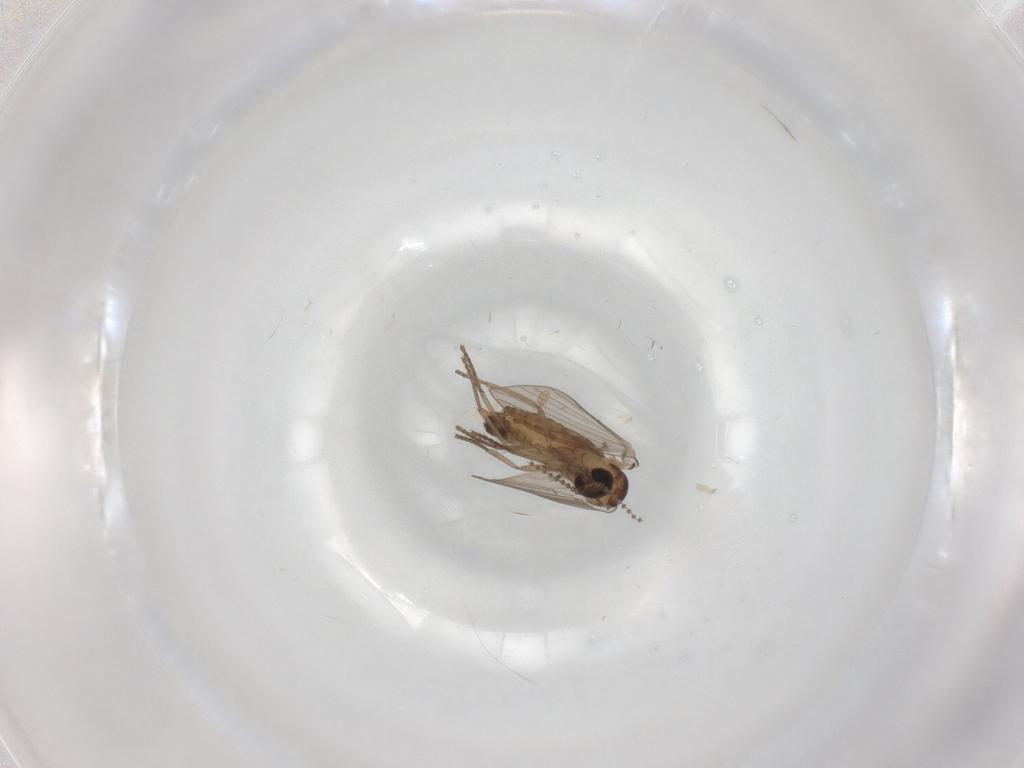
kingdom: Animalia
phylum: Arthropoda
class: Insecta
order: Diptera
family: Cecidomyiidae
